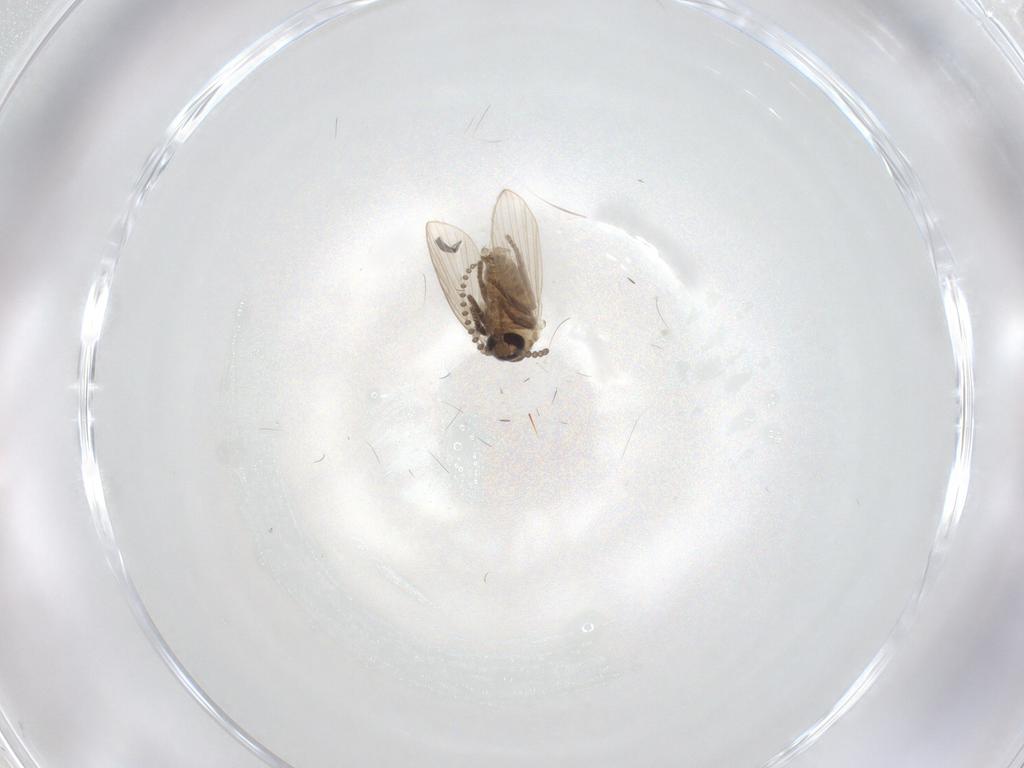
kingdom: Animalia
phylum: Arthropoda
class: Insecta
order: Diptera
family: Psychodidae
